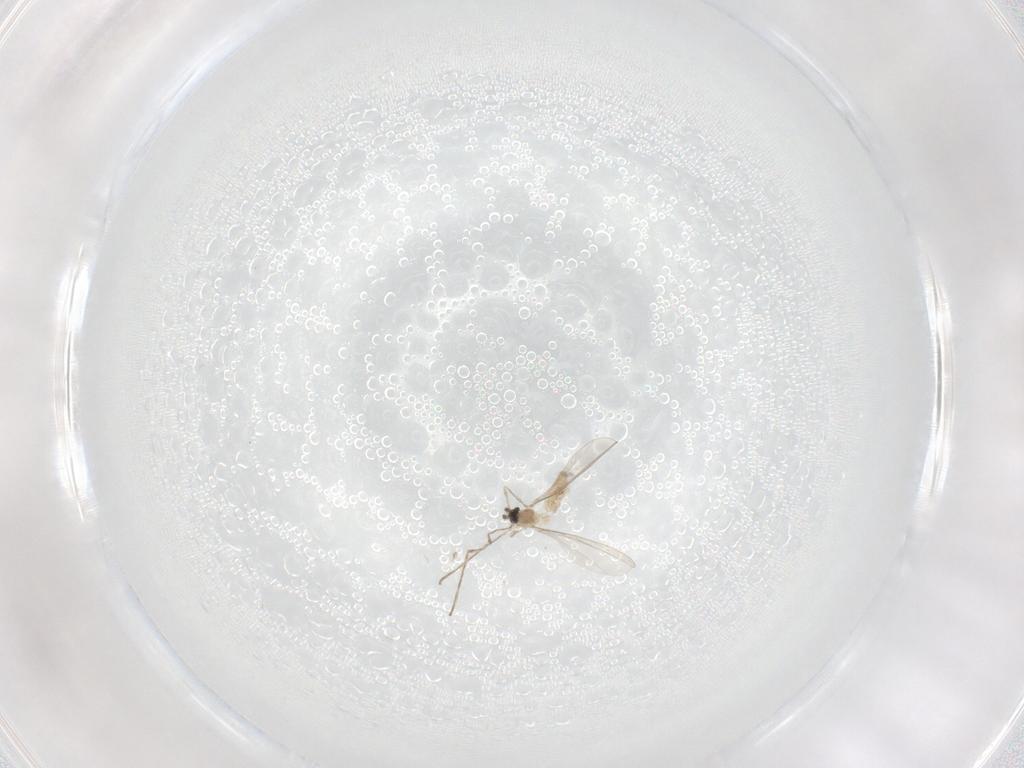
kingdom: Animalia
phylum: Arthropoda
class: Insecta
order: Diptera
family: Cecidomyiidae
